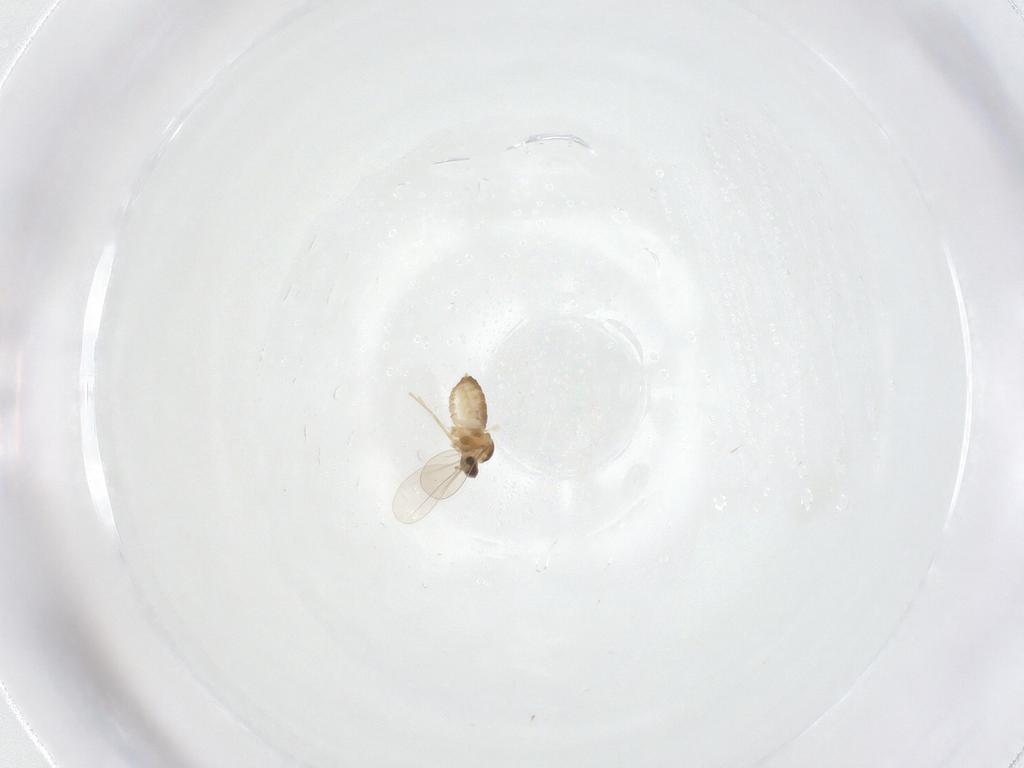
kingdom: Animalia
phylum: Arthropoda
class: Insecta
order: Diptera
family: Cecidomyiidae
